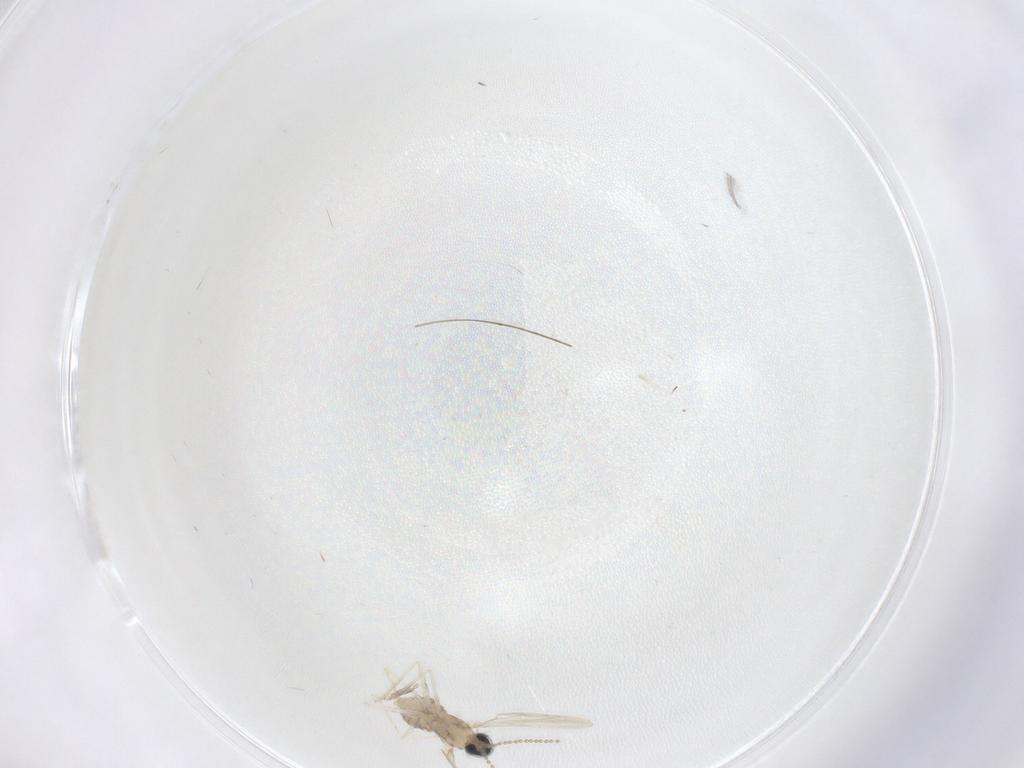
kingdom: Animalia
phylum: Arthropoda
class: Insecta
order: Diptera
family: Cecidomyiidae
